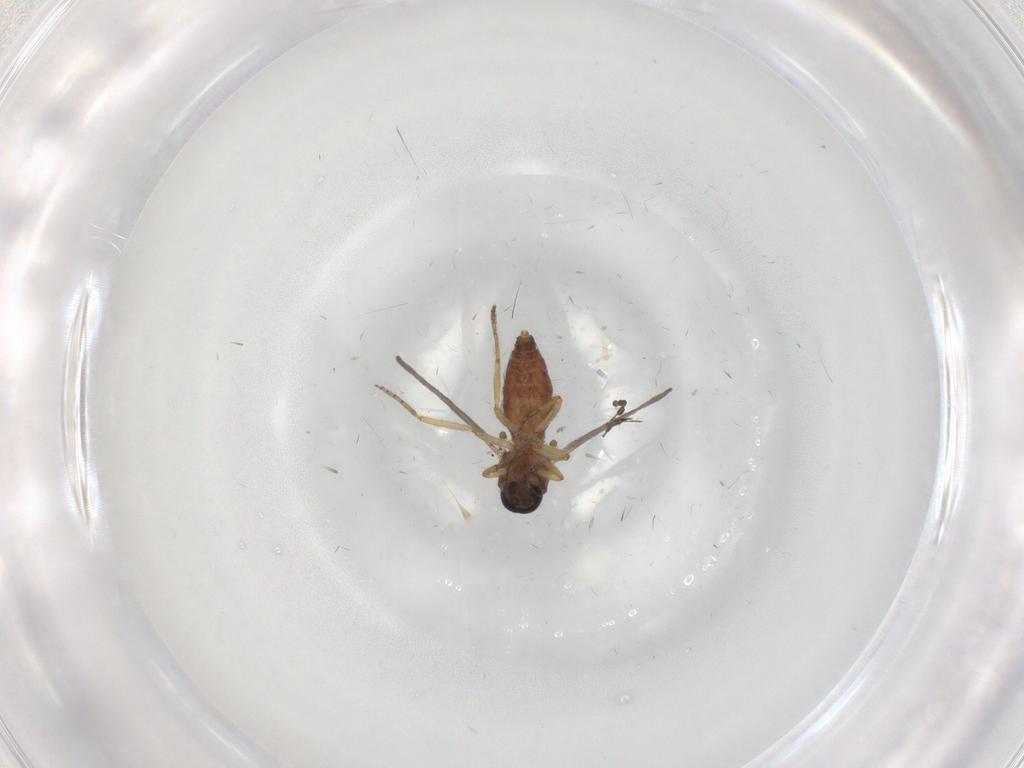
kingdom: Animalia
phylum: Arthropoda
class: Insecta
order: Diptera
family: Ceratopogonidae
